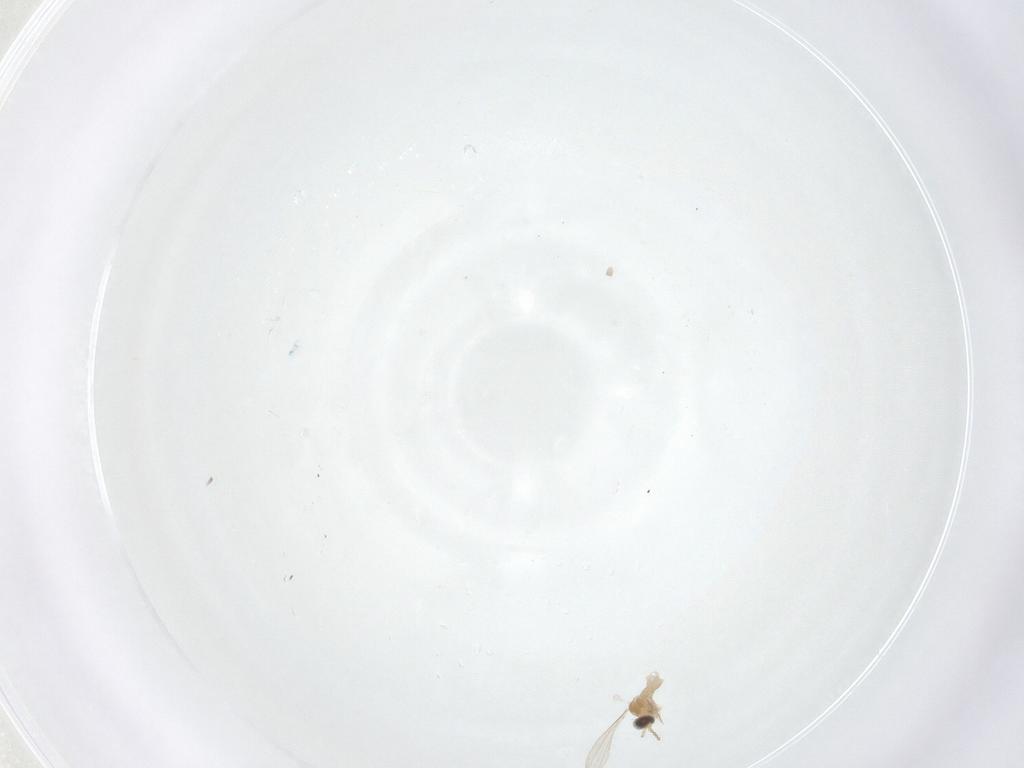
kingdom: Animalia
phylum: Arthropoda
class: Insecta
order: Diptera
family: Cecidomyiidae
